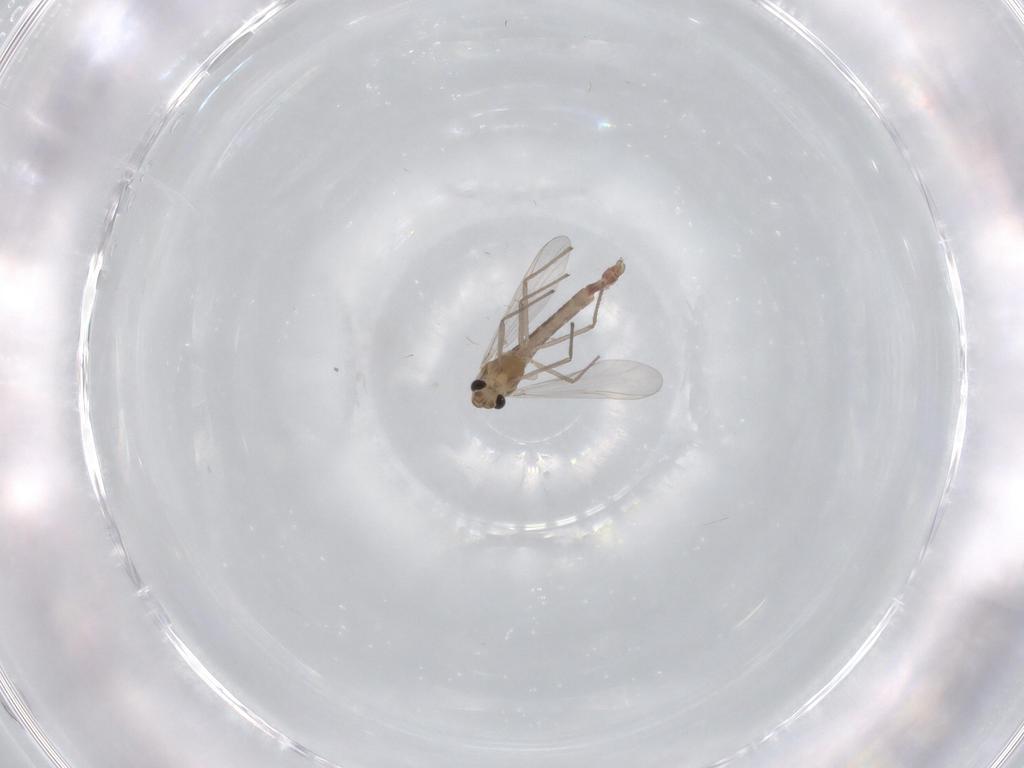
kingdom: Animalia
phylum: Arthropoda
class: Insecta
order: Diptera
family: Chironomidae
